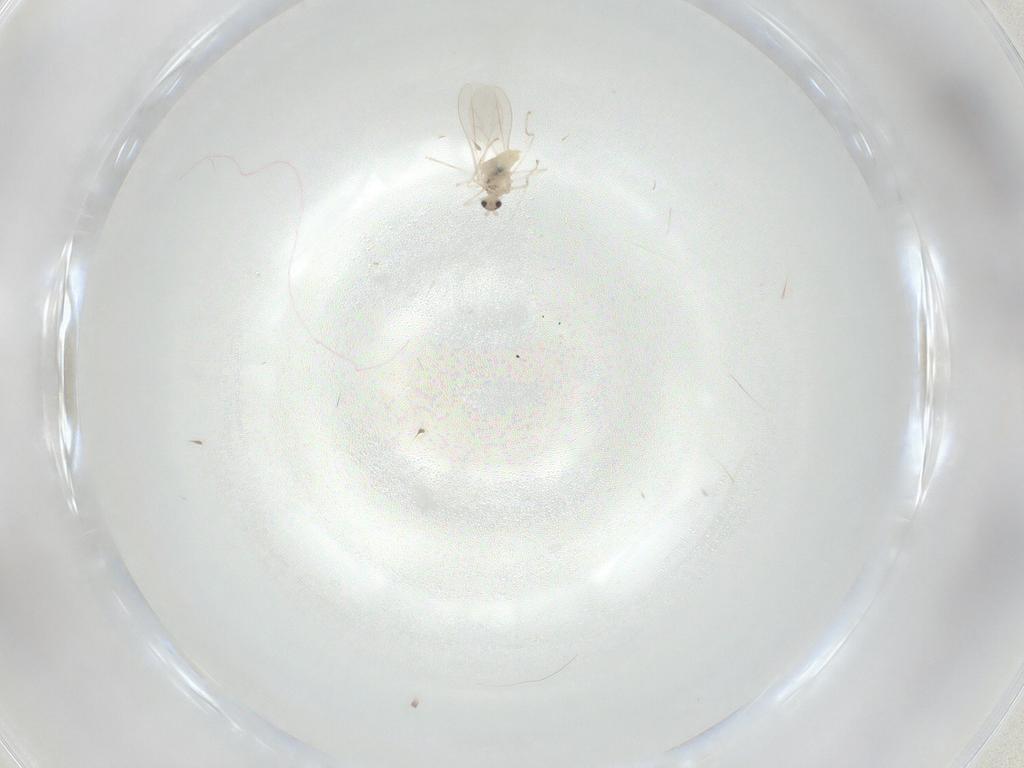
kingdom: Animalia
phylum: Arthropoda
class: Insecta
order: Diptera
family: Cecidomyiidae
